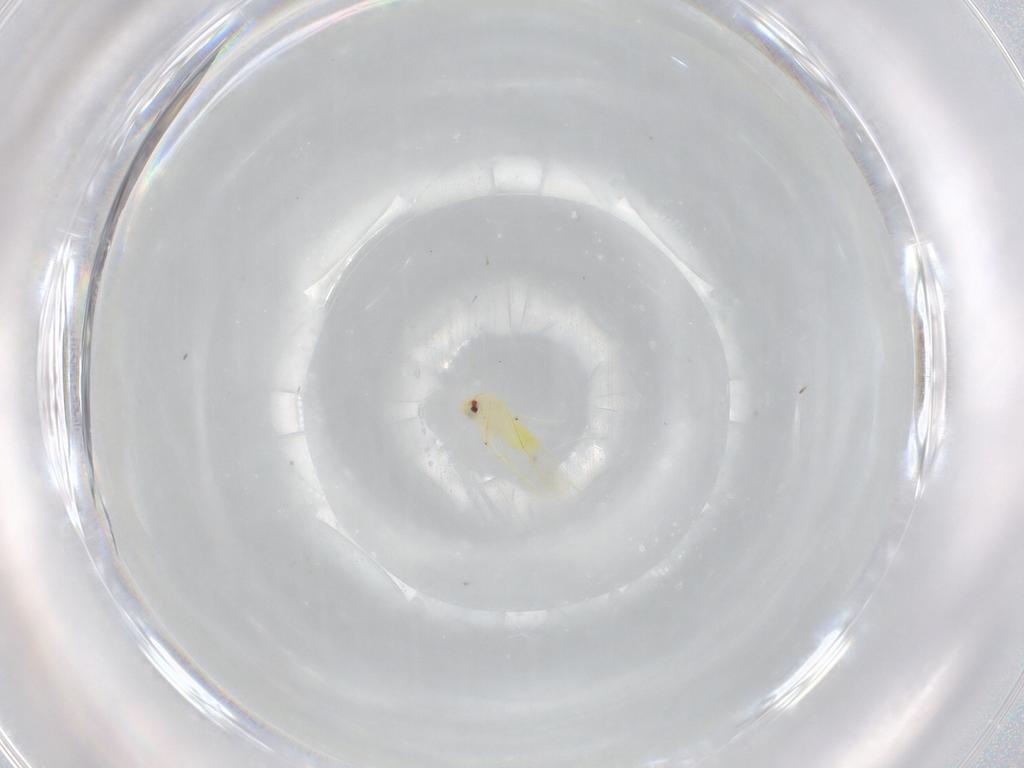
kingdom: Animalia
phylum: Arthropoda
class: Insecta
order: Hemiptera
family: Aleyrodidae
